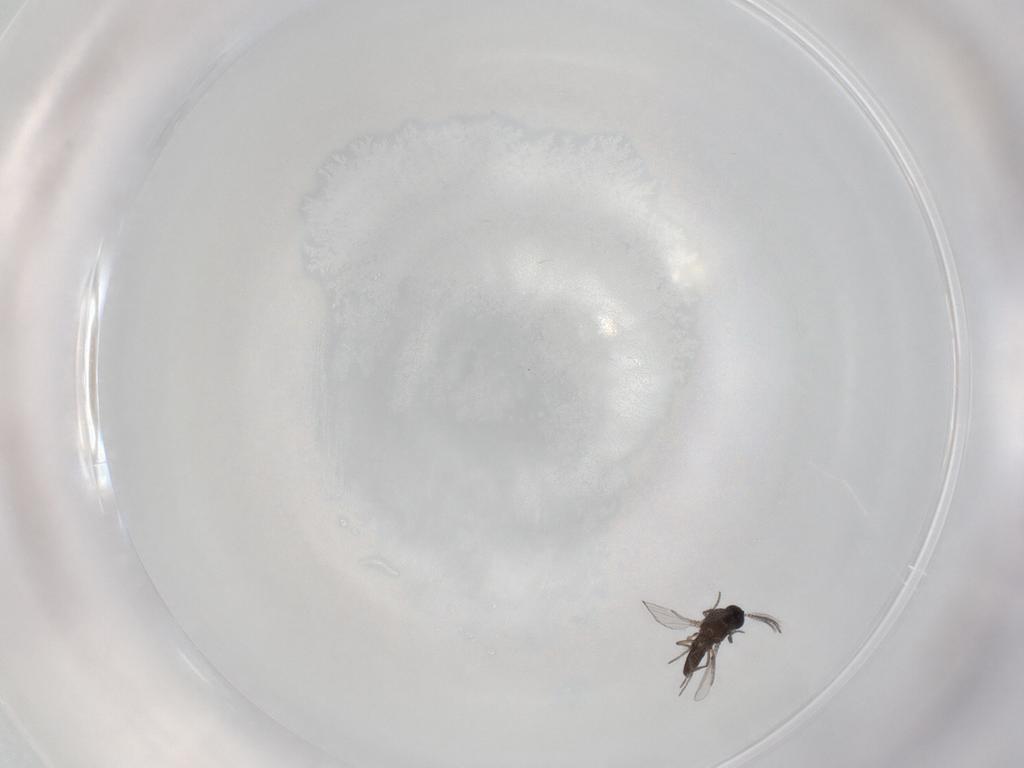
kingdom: Animalia
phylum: Arthropoda
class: Insecta
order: Diptera
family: Ceratopogonidae
